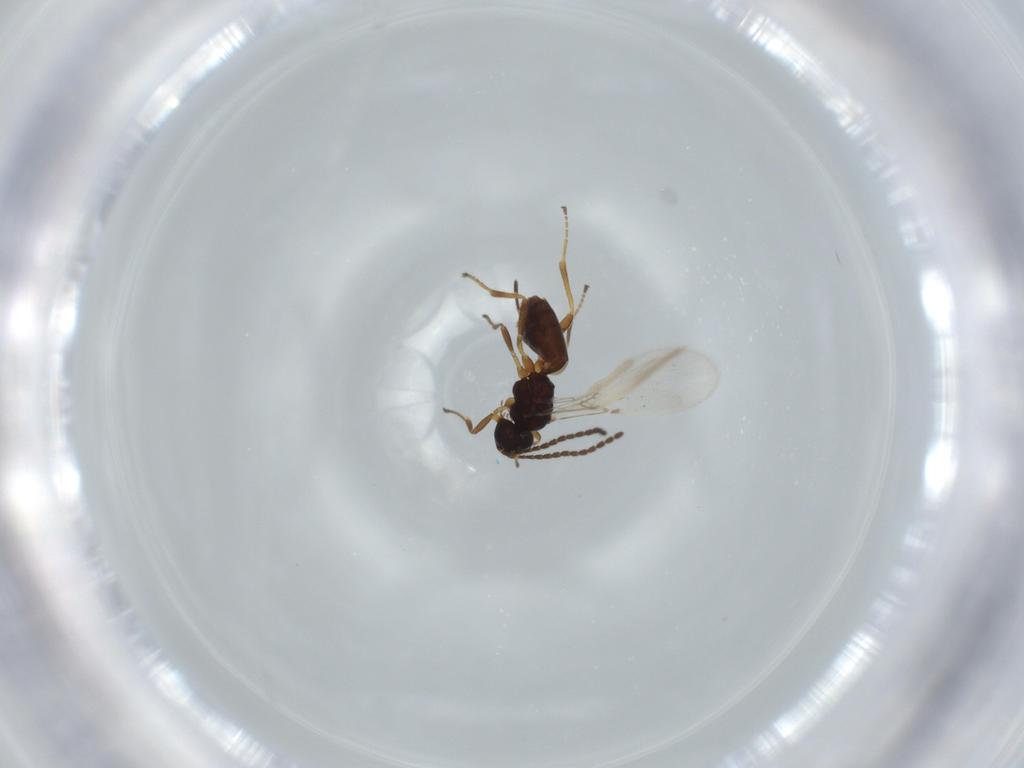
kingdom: Animalia
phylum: Arthropoda
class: Insecta
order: Hymenoptera
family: Braconidae
